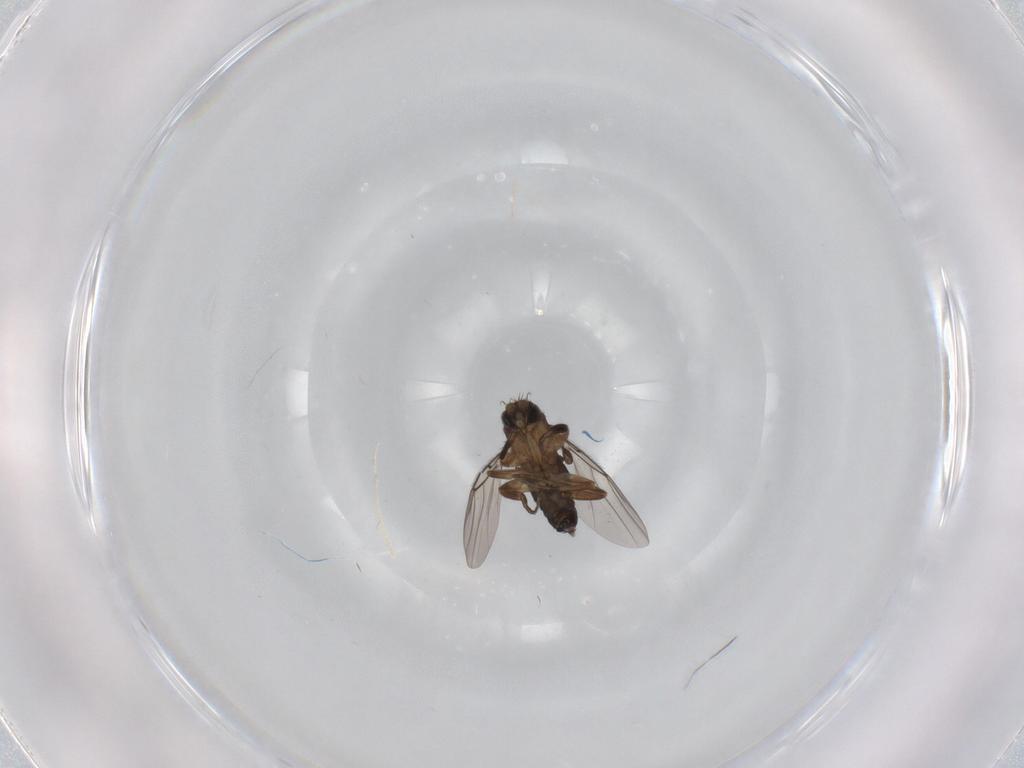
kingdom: Animalia
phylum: Arthropoda
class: Insecta
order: Diptera
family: Phoridae
